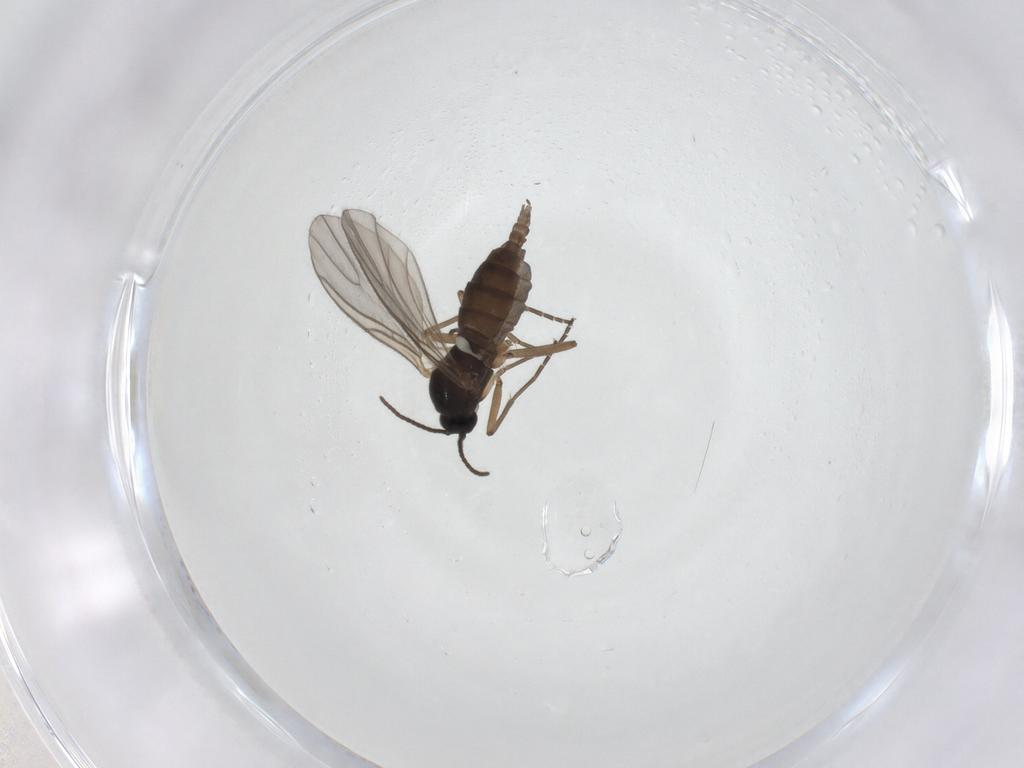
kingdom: Animalia
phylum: Arthropoda
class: Insecta
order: Diptera
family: Sciaridae
